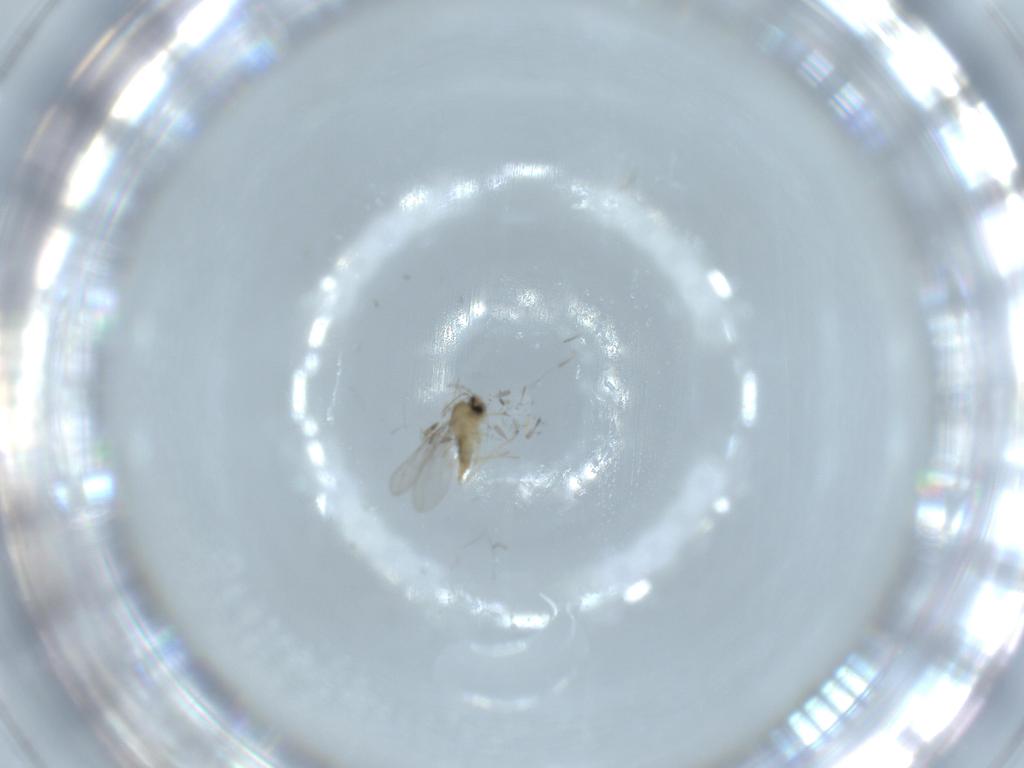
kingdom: Animalia
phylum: Arthropoda
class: Insecta
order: Diptera
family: Cecidomyiidae
